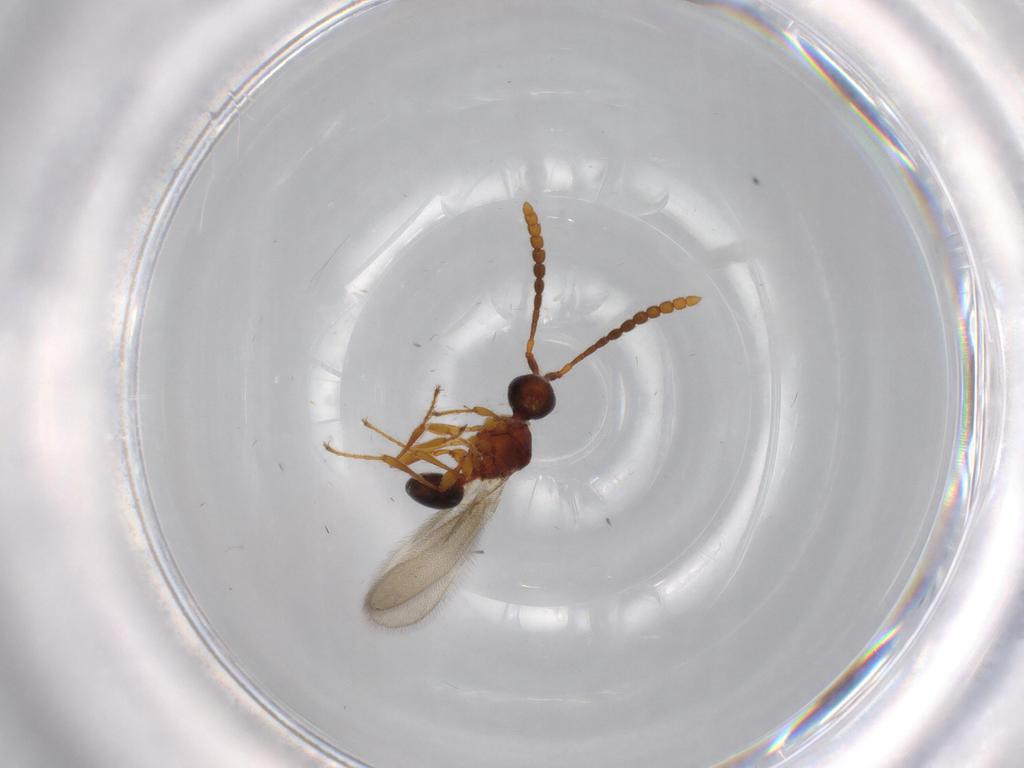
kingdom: Animalia
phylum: Arthropoda
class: Insecta
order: Hymenoptera
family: Diapriidae
